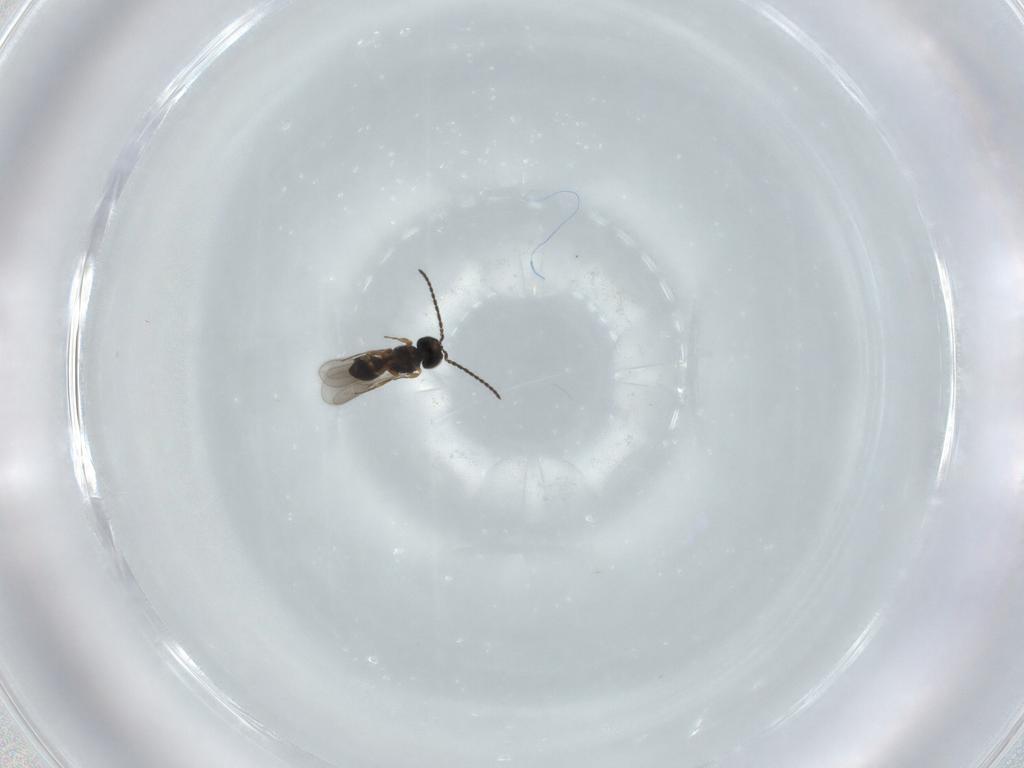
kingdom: Animalia
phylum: Arthropoda
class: Insecta
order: Hymenoptera
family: Scelionidae
